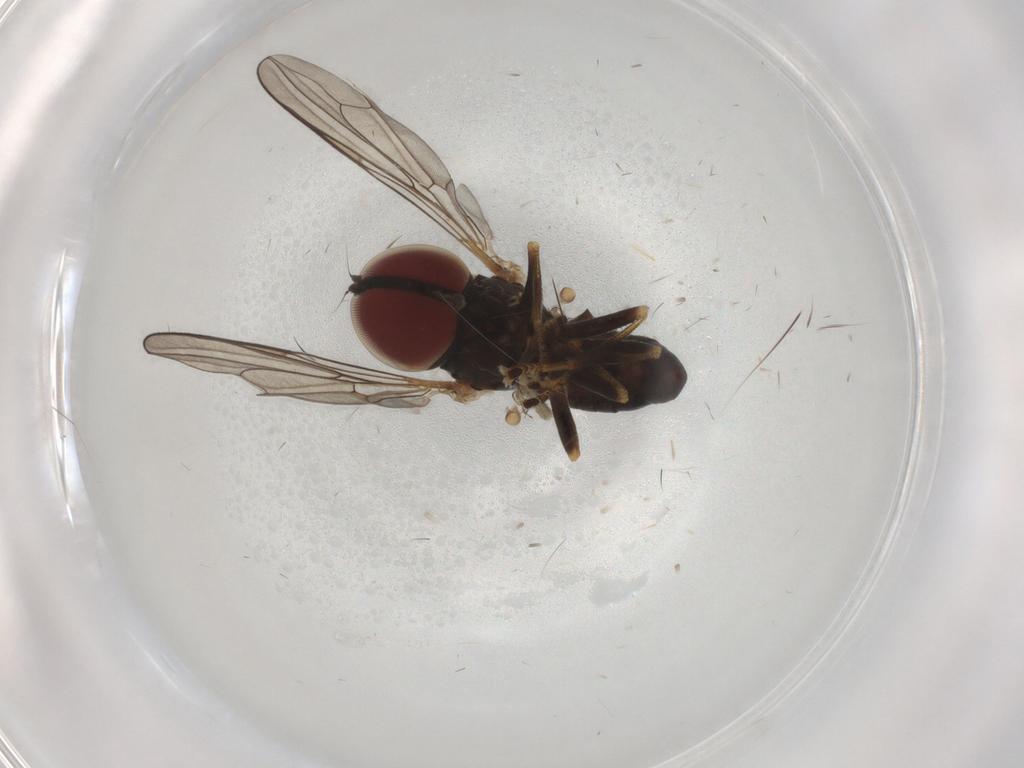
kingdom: Animalia
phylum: Arthropoda
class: Insecta
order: Diptera
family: Pipunculidae
